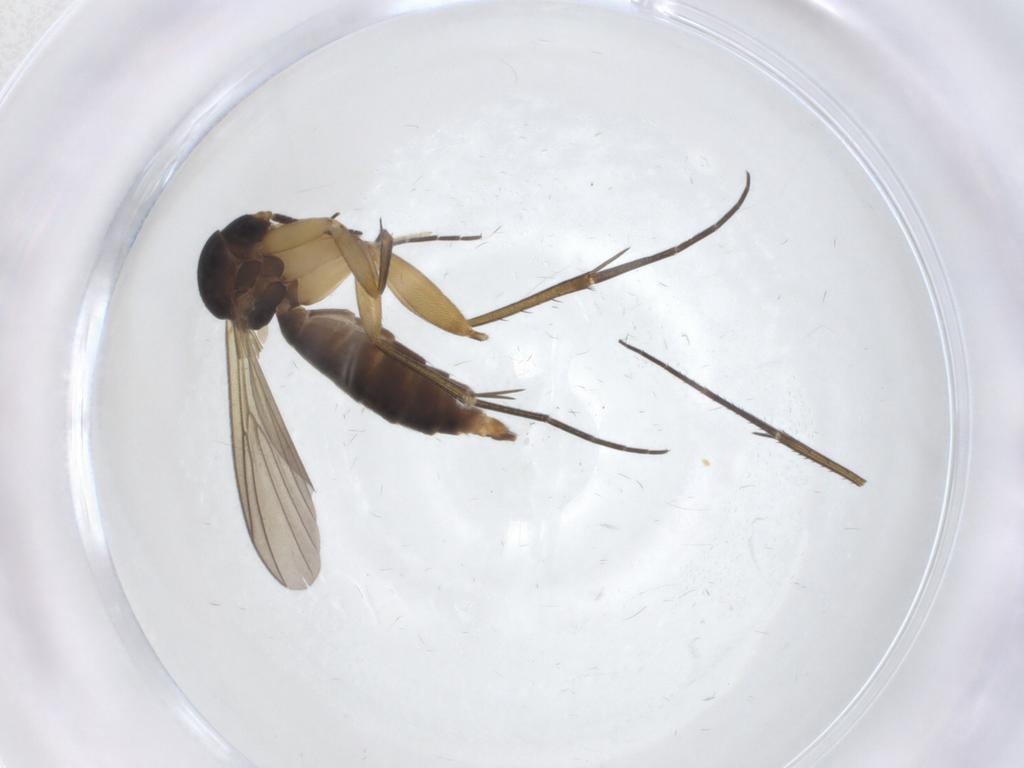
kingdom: Animalia
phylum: Arthropoda
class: Insecta
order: Diptera
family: Mycetophilidae
